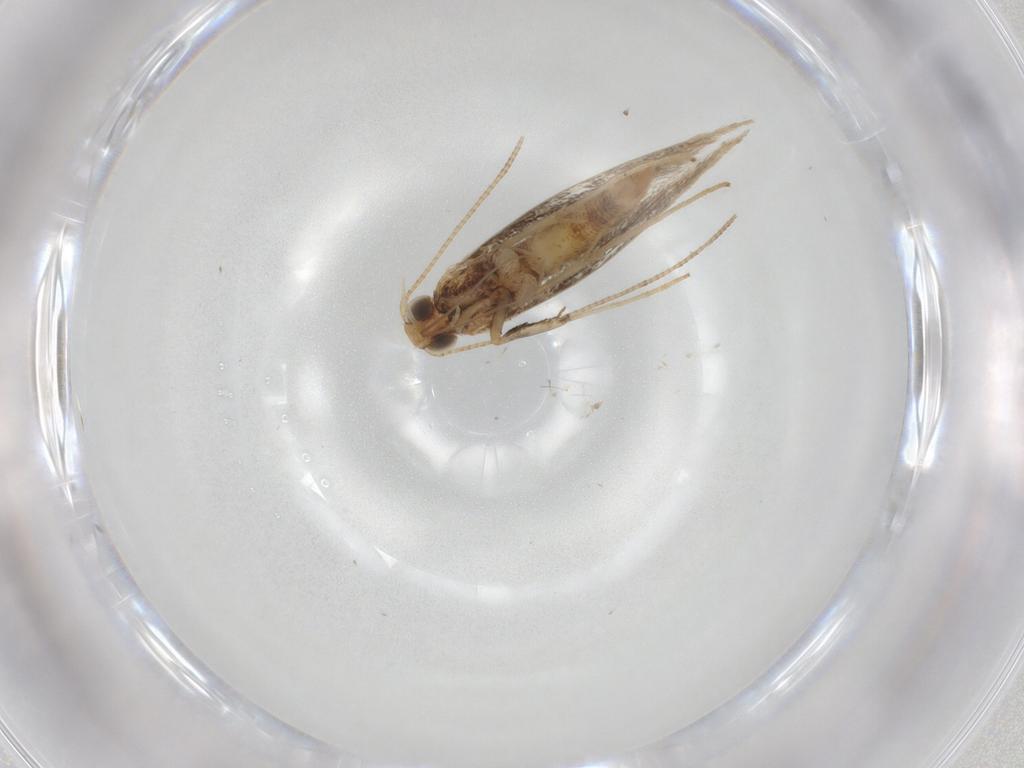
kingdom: Animalia
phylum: Arthropoda
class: Insecta
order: Lepidoptera
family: Gracillariidae
